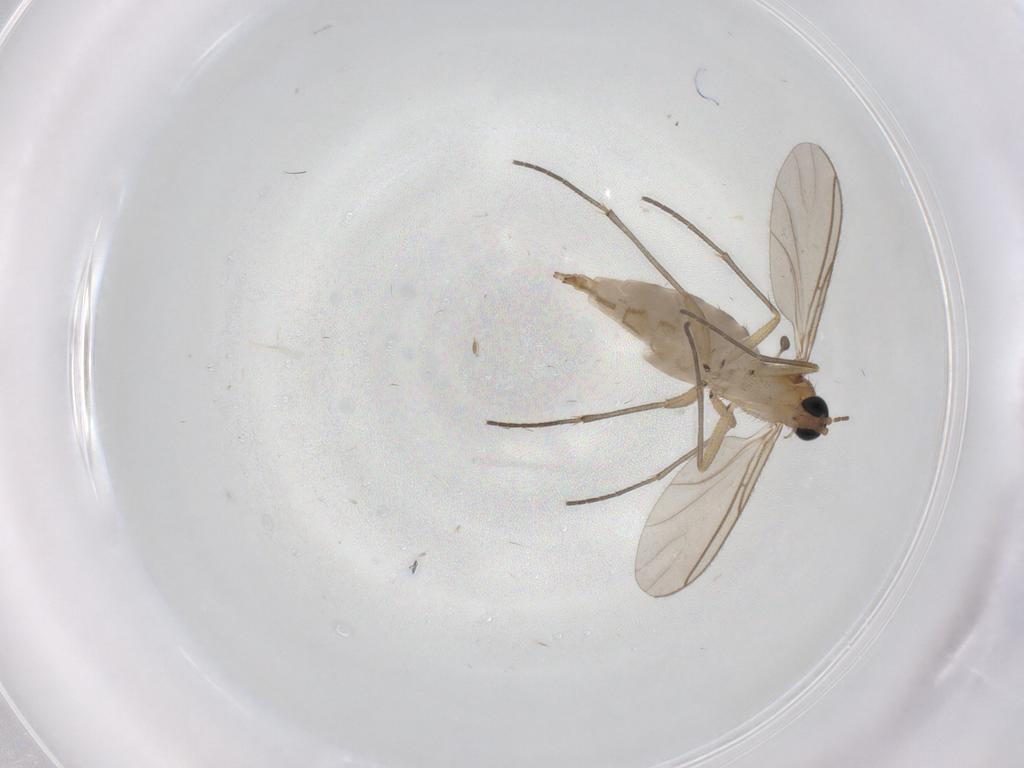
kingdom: Animalia
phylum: Arthropoda
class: Insecta
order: Diptera
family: Sciaridae
